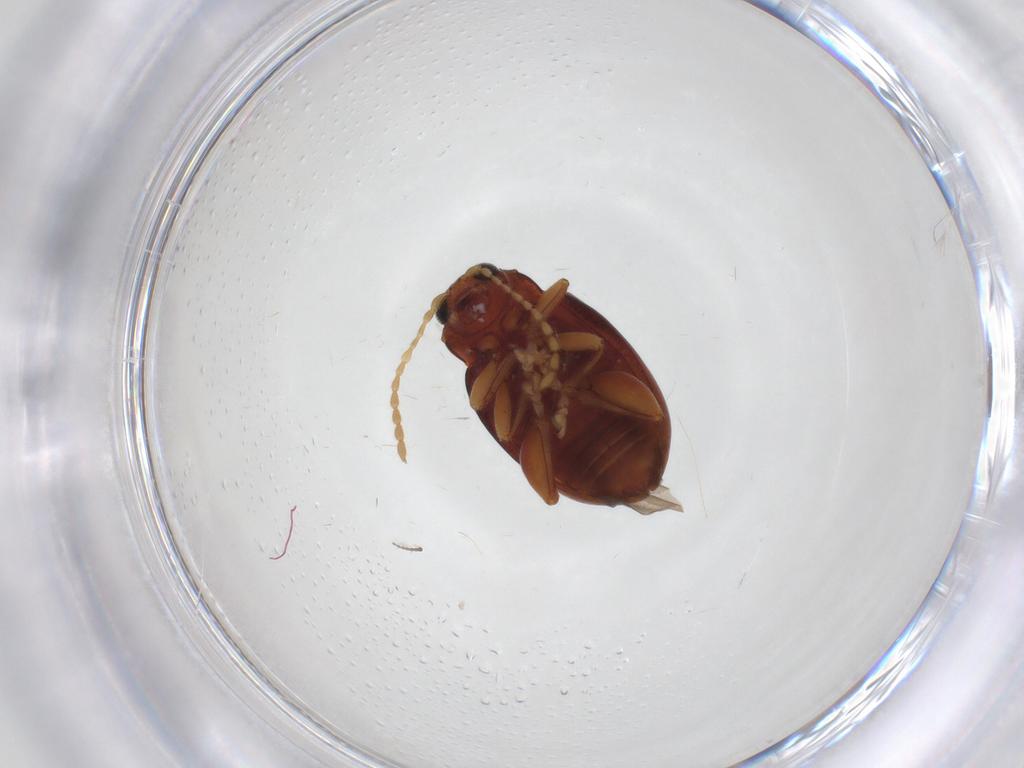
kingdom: Animalia
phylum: Arthropoda
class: Insecta
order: Coleoptera
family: Chrysomelidae
